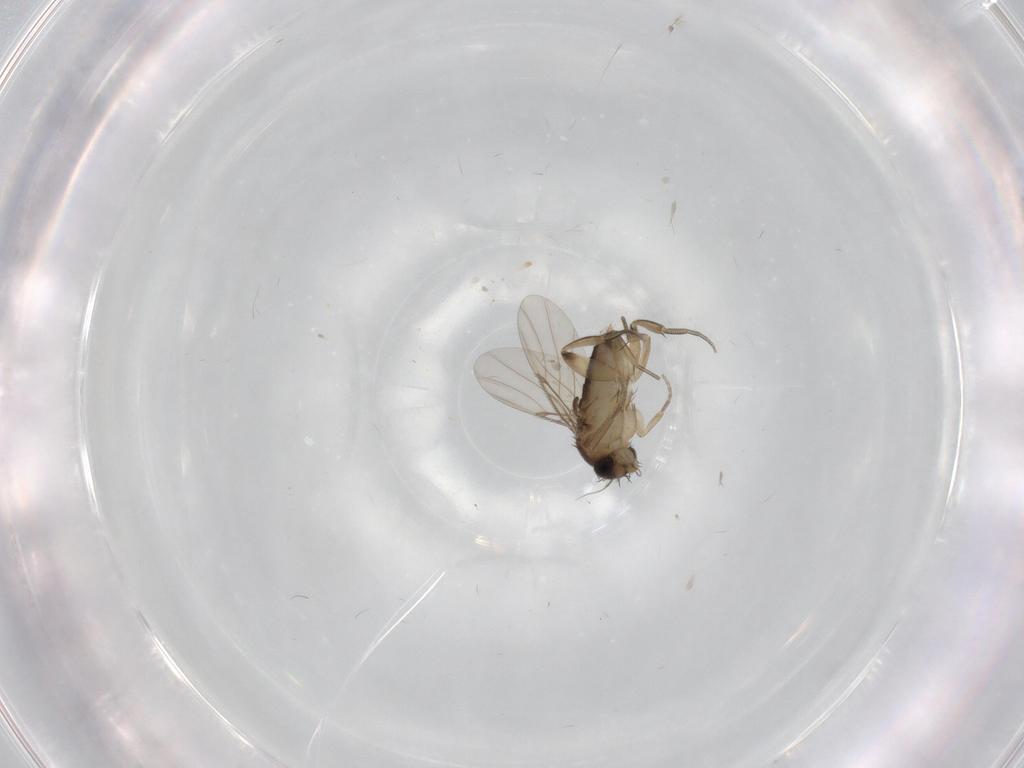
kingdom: Animalia
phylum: Arthropoda
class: Insecta
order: Diptera
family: Phoridae
